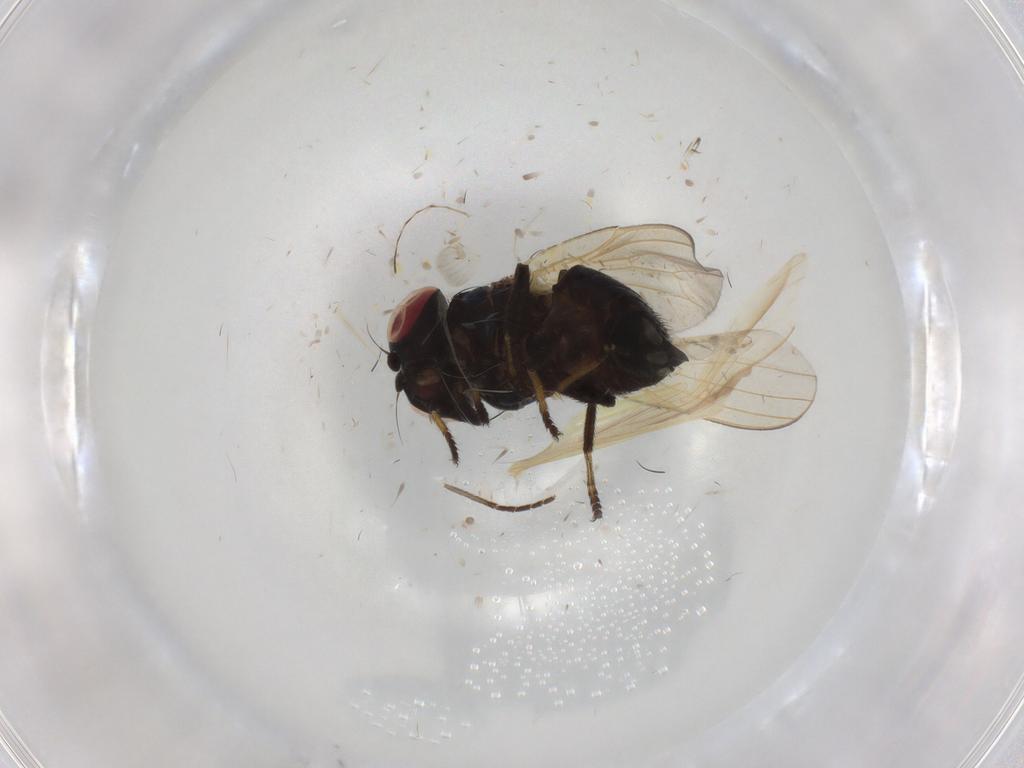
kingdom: Animalia
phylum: Arthropoda
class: Insecta
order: Diptera
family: Lonchaeidae
